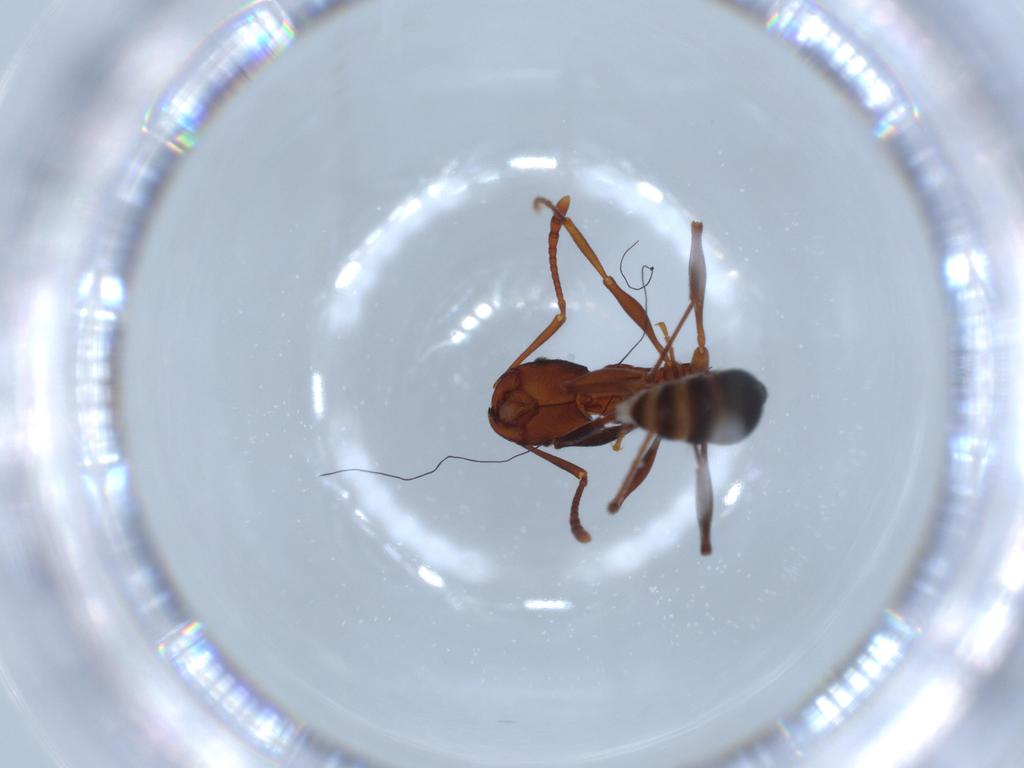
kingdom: Animalia
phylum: Arthropoda
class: Insecta
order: Hymenoptera
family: Formicidae
